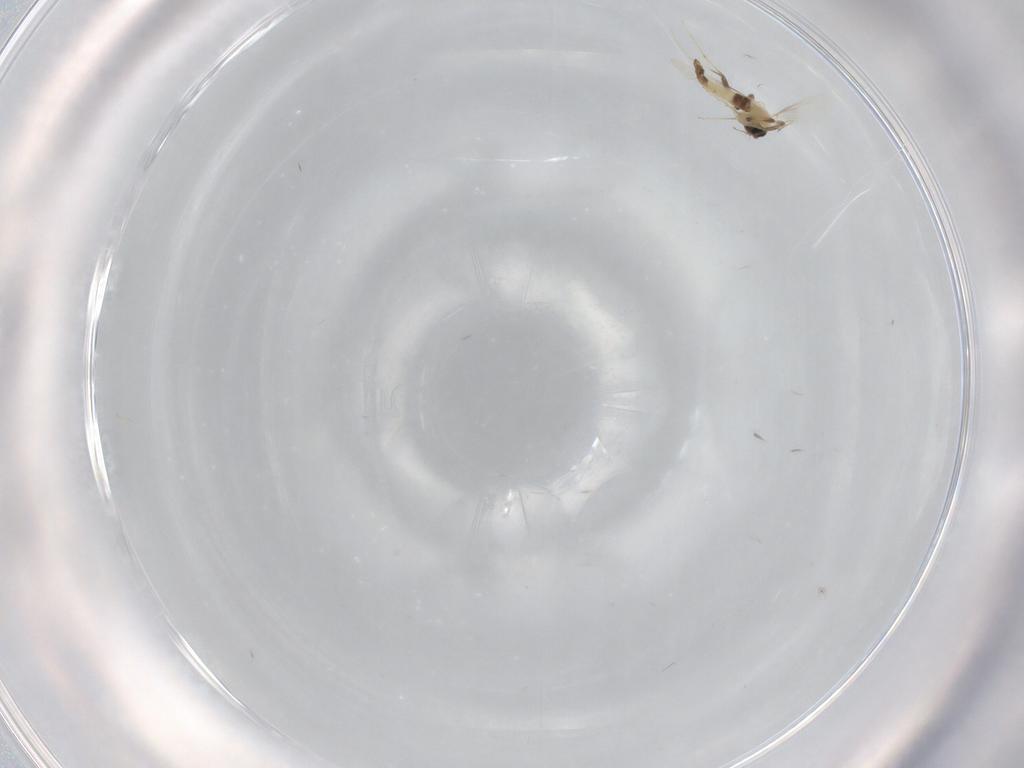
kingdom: Animalia
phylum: Arthropoda
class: Insecta
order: Diptera
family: Chironomidae
